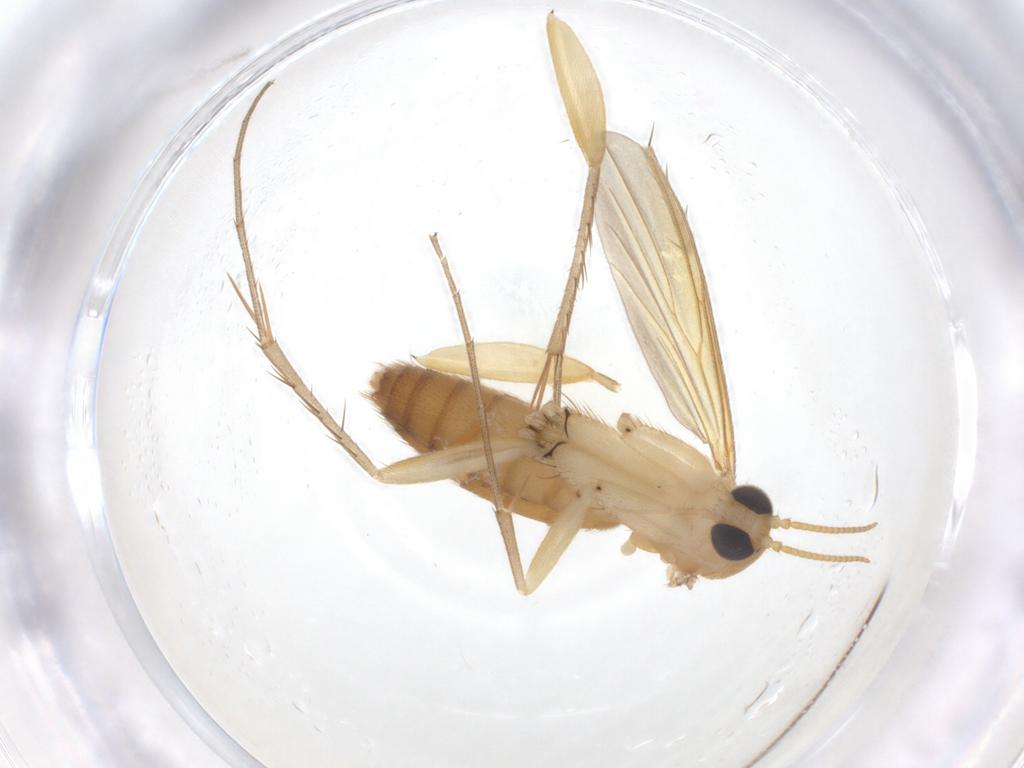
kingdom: Animalia
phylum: Arthropoda
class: Insecta
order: Diptera
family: Mycetophilidae
